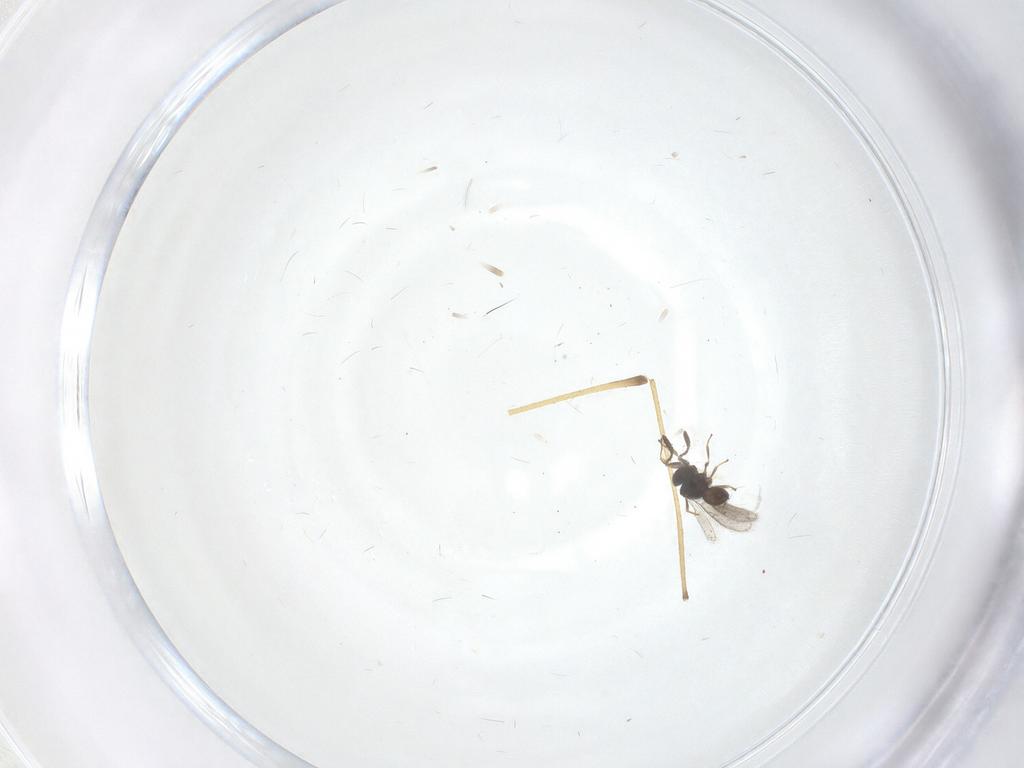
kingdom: Animalia
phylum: Arthropoda
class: Insecta
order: Hymenoptera
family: Scelionidae
